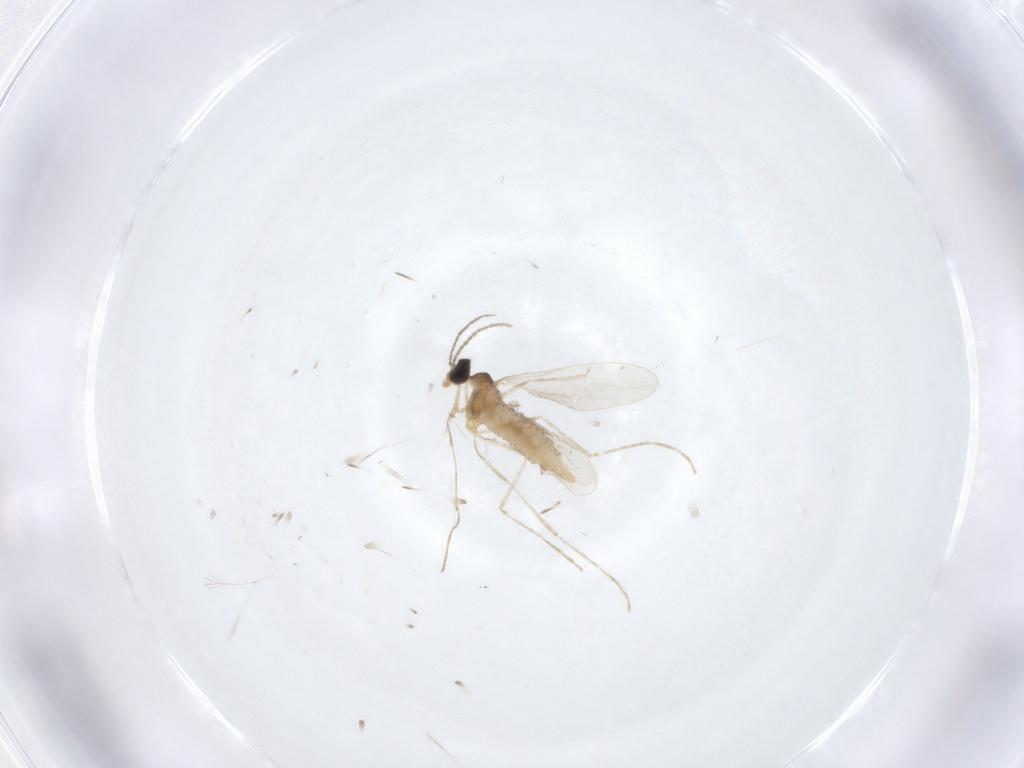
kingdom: Animalia
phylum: Arthropoda
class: Insecta
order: Diptera
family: Cecidomyiidae
